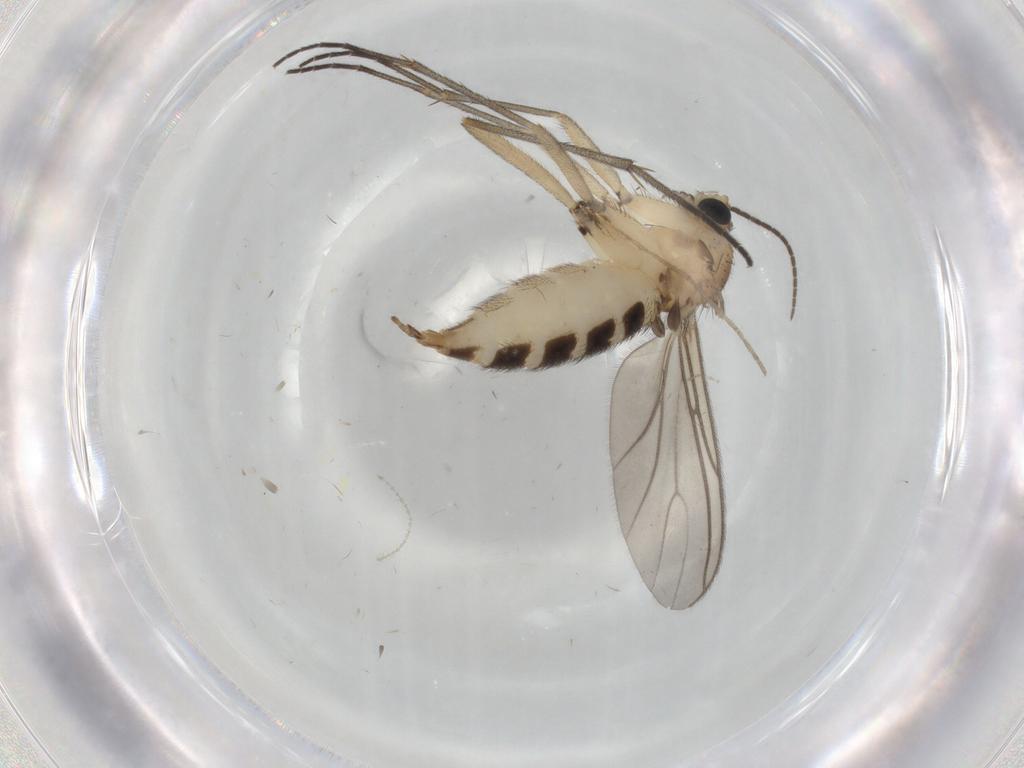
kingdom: Animalia
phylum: Arthropoda
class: Insecta
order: Diptera
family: Sciaridae
